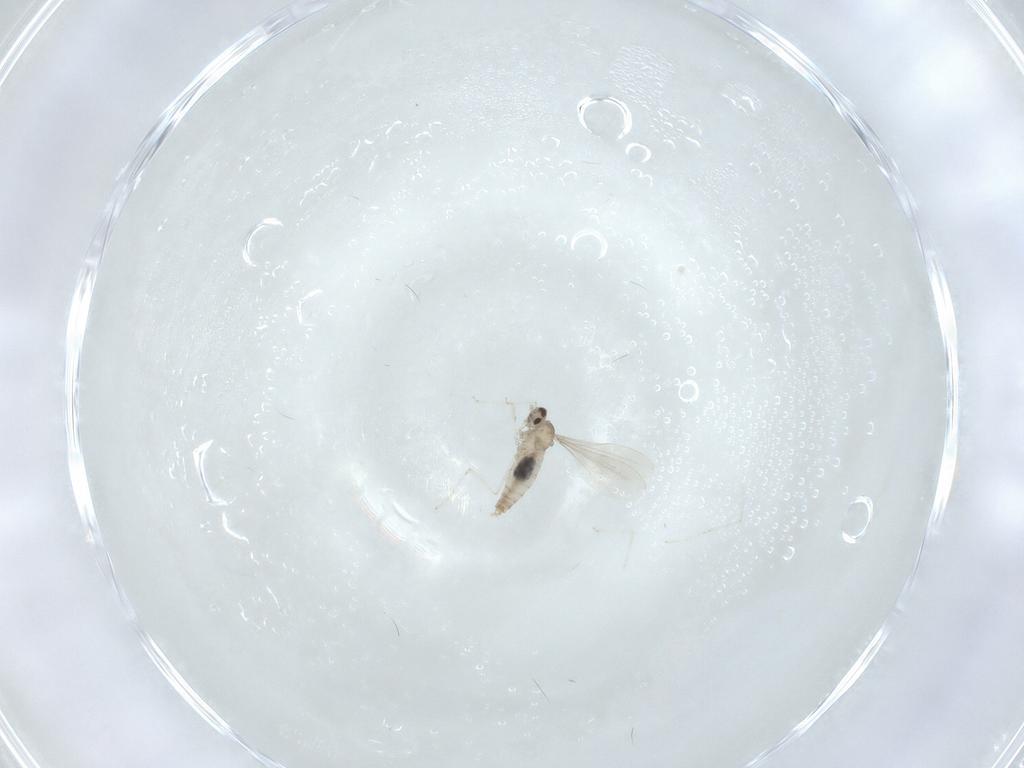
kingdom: Animalia
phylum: Arthropoda
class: Insecta
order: Diptera
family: Cecidomyiidae
